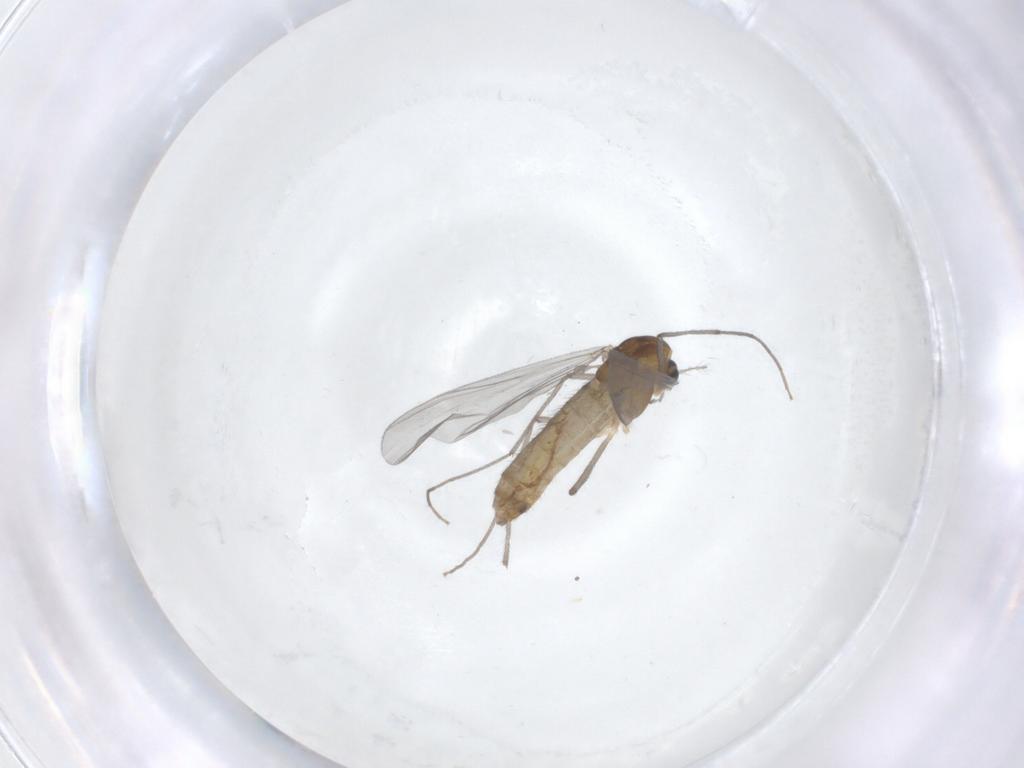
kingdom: Animalia
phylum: Arthropoda
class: Insecta
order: Diptera
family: Chironomidae
